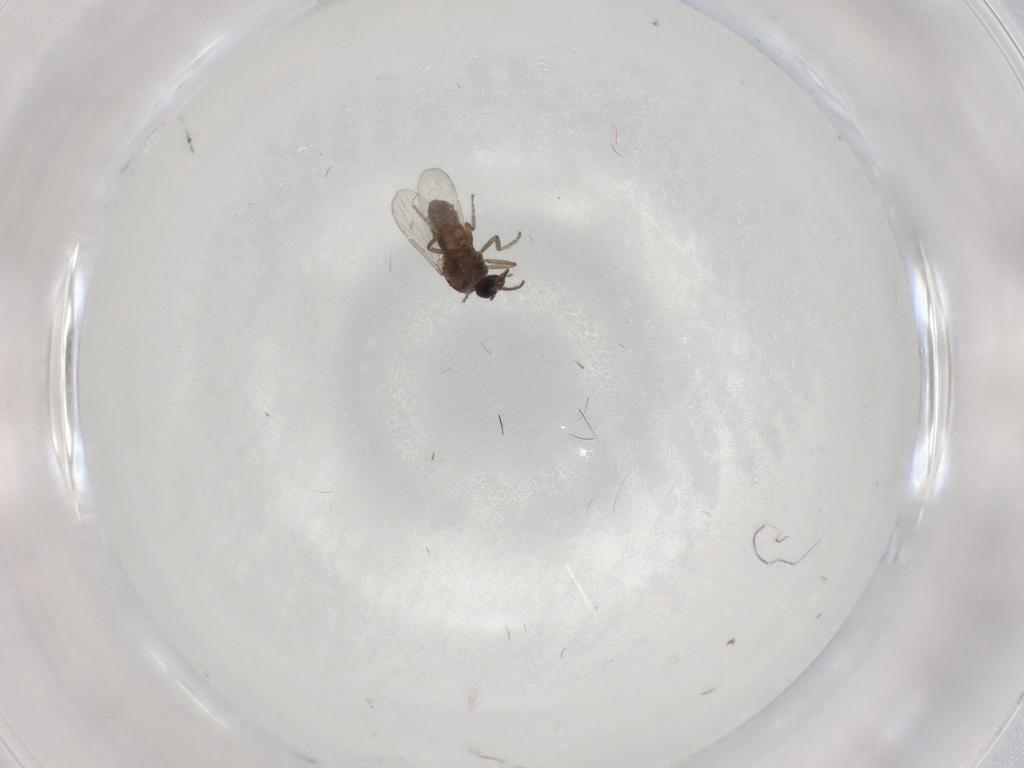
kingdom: Animalia
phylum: Arthropoda
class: Insecta
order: Diptera
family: Ceratopogonidae
